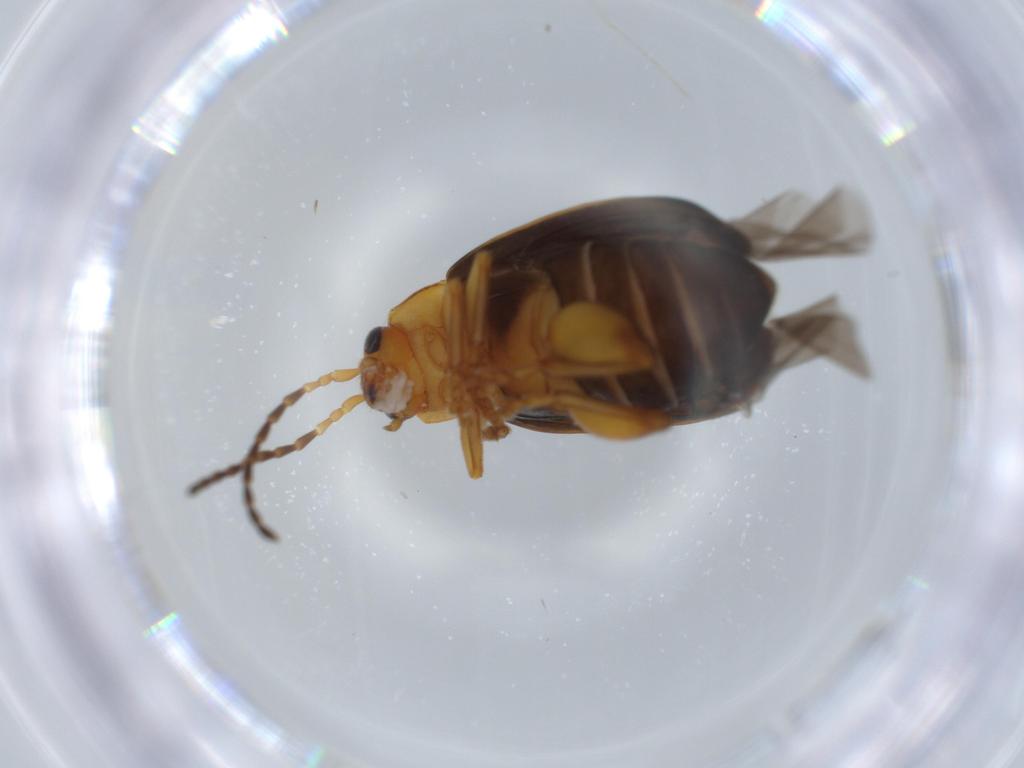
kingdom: Animalia
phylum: Arthropoda
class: Insecta
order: Coleoptera
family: Chrysomelidae
